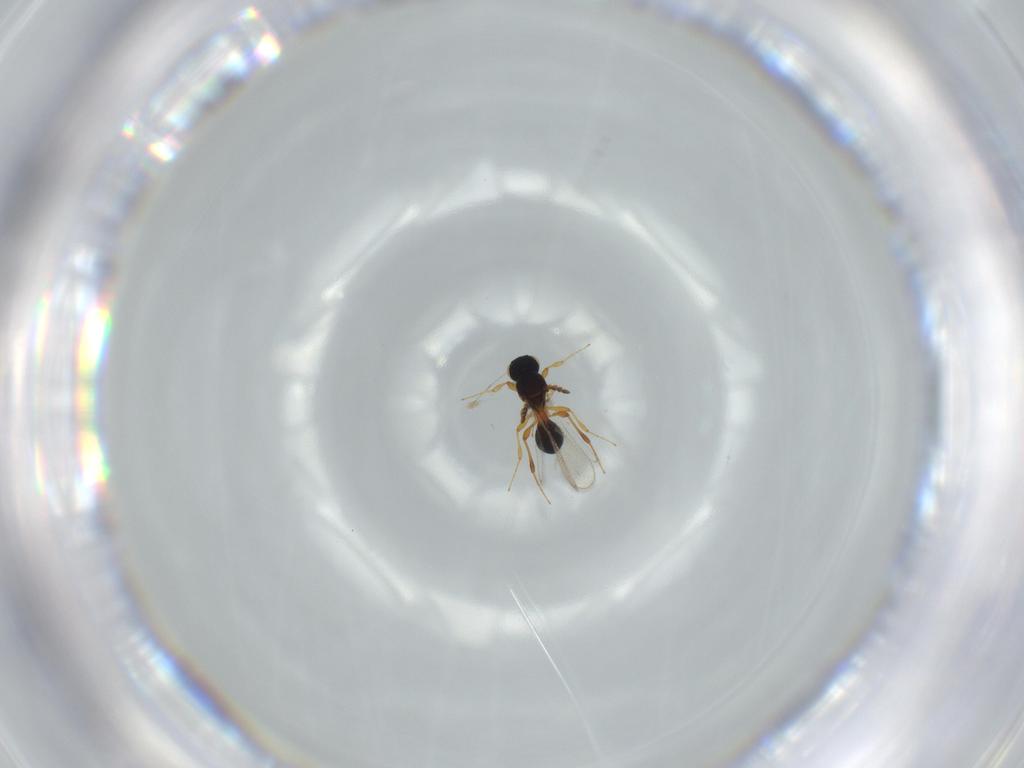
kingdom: Animalia
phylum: Arthropoda
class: Insecta
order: Hymenoptera
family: Platygastridae
